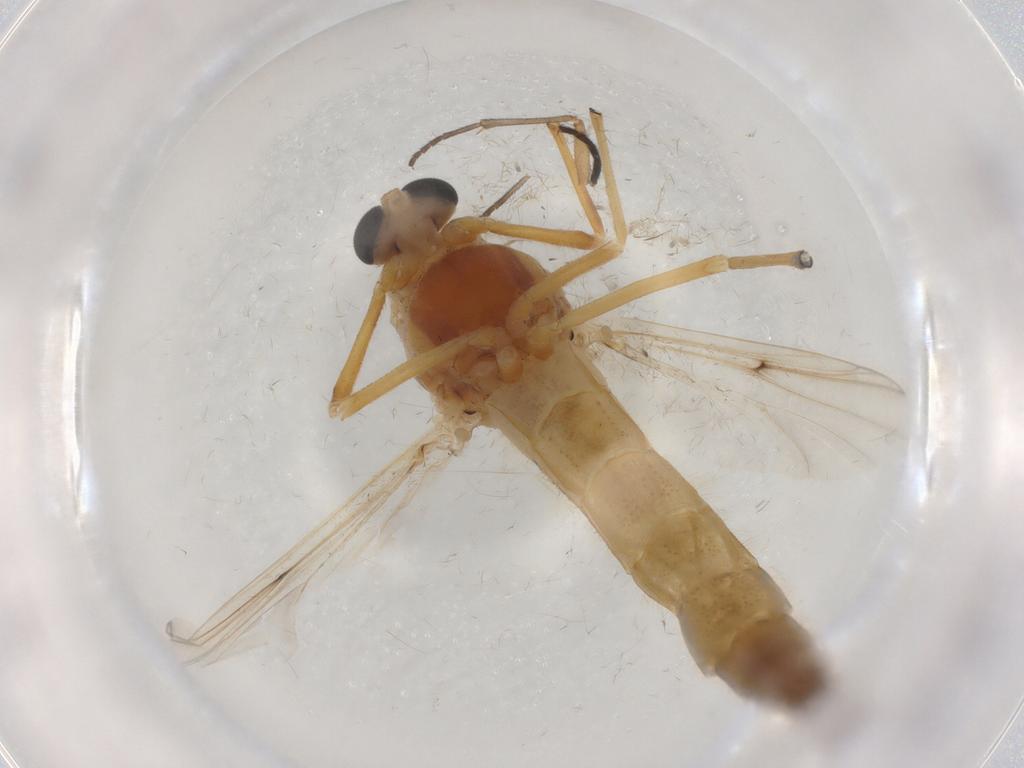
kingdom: Animalia
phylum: Arthropoda
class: Insecta
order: Diptera
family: Chironomidae
